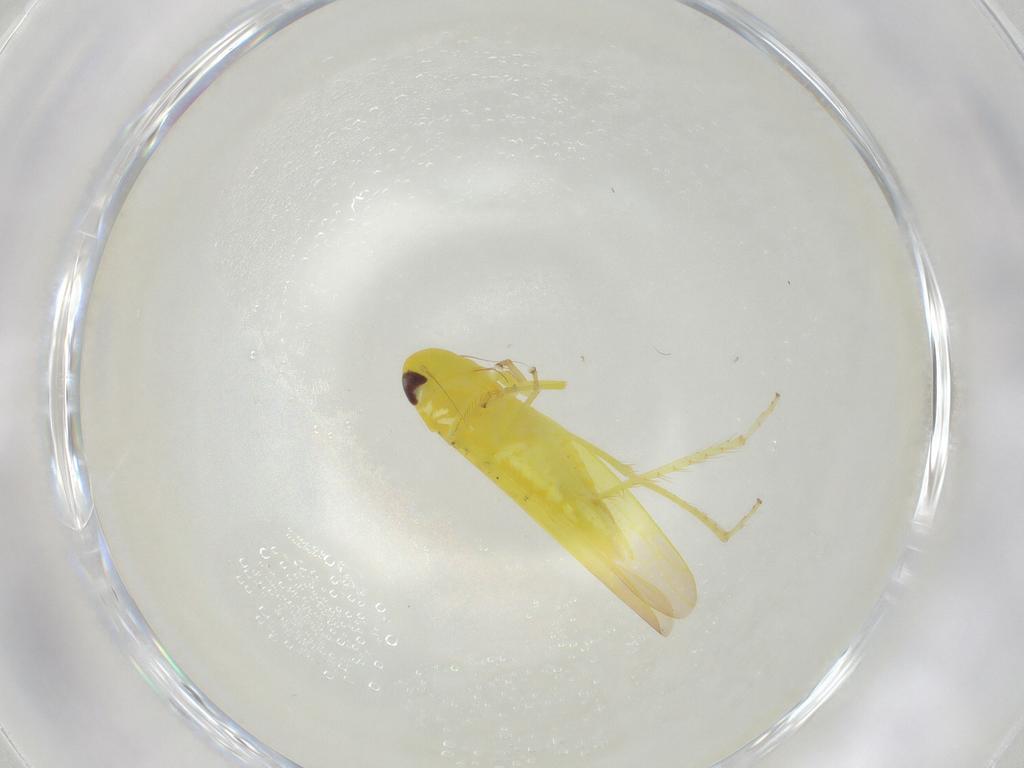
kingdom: Animalia
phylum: Arthropoda
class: Insecta
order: Hemiptera
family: Cicadellidae
